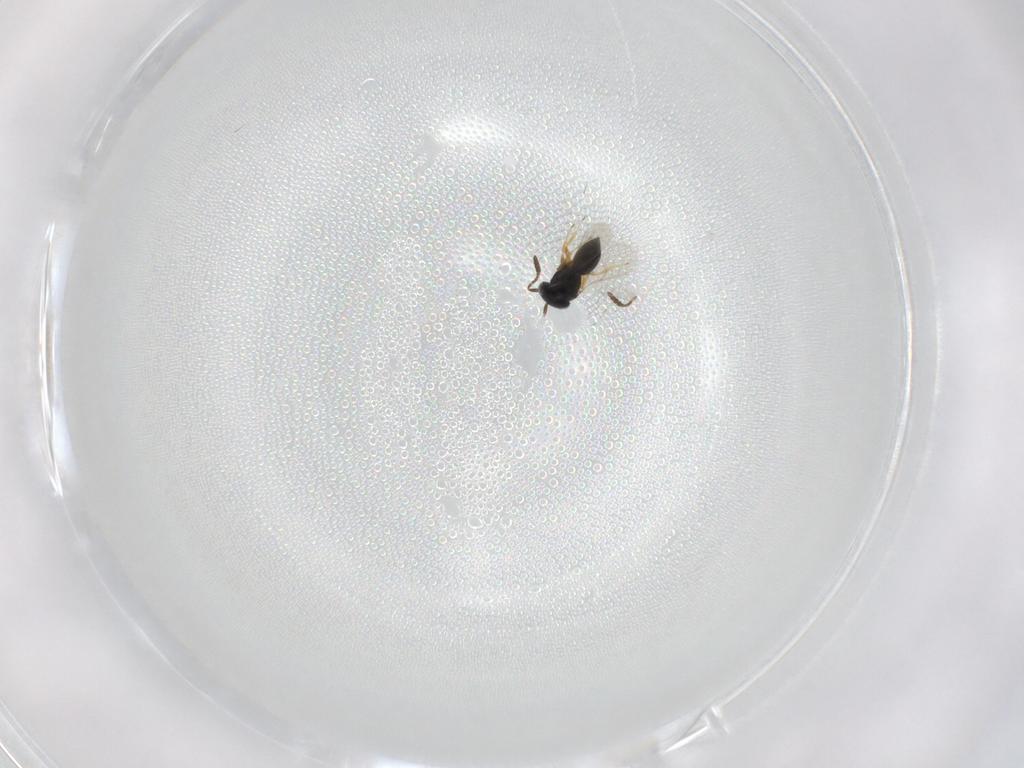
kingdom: Animalia
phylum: Arthropoda
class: Insecta
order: Hymenoptera
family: Scelionidae
